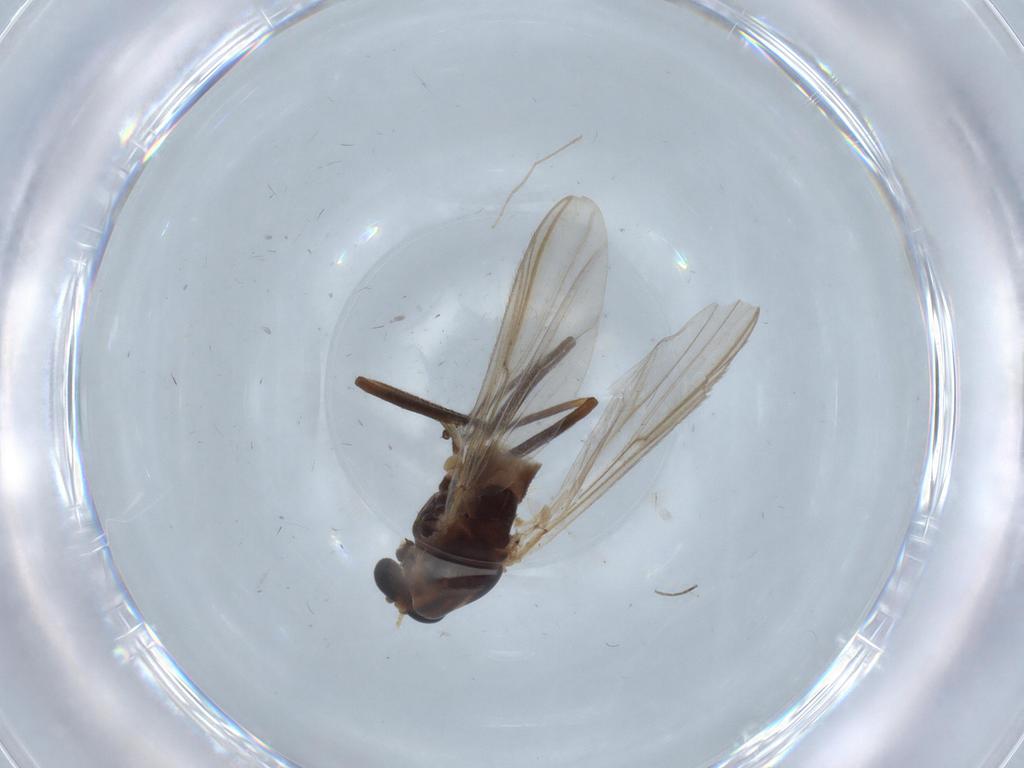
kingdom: Animalia
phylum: Arthropoda
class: Insecta
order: Diptera
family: Chironomidae
